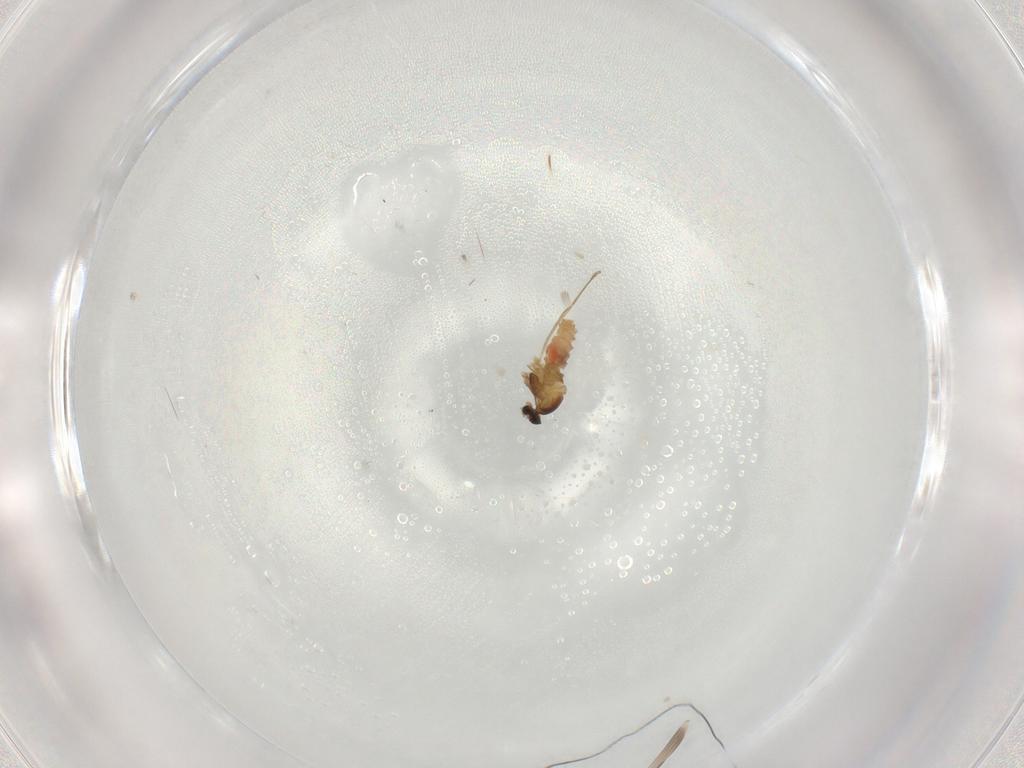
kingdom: Animalia
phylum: Arthropoda
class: Insecta
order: Diptera
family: Cecidomyiidae
